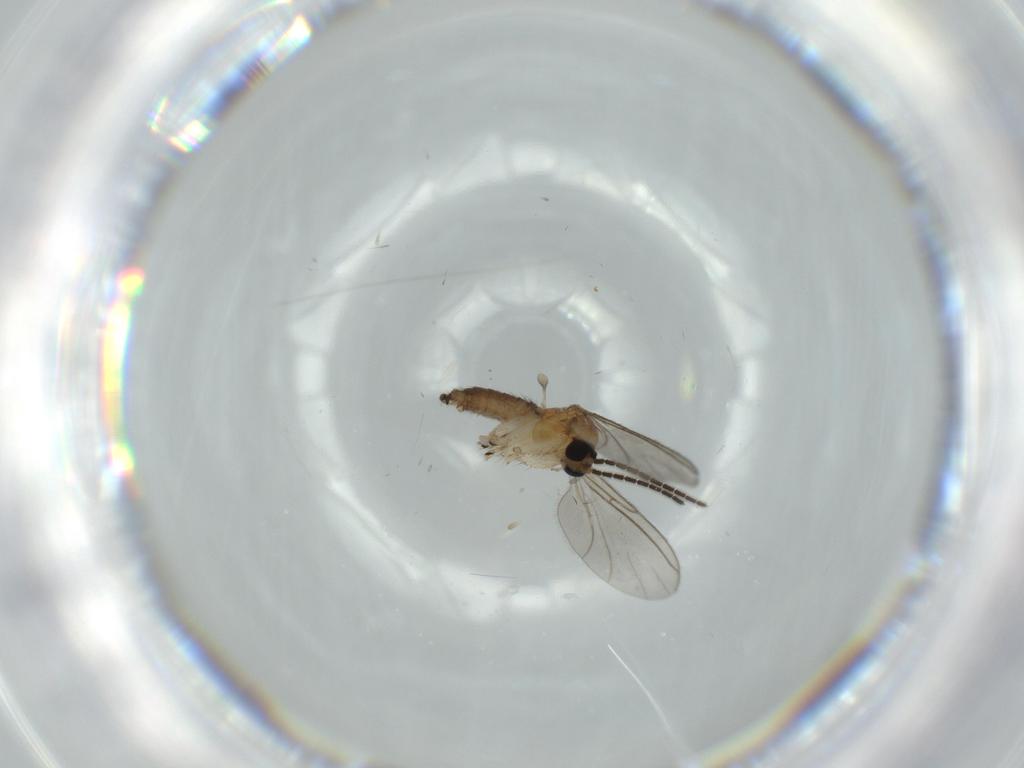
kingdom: Animalia
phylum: Arthropoda
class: Insecta
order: Diptera
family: Sciaridae
